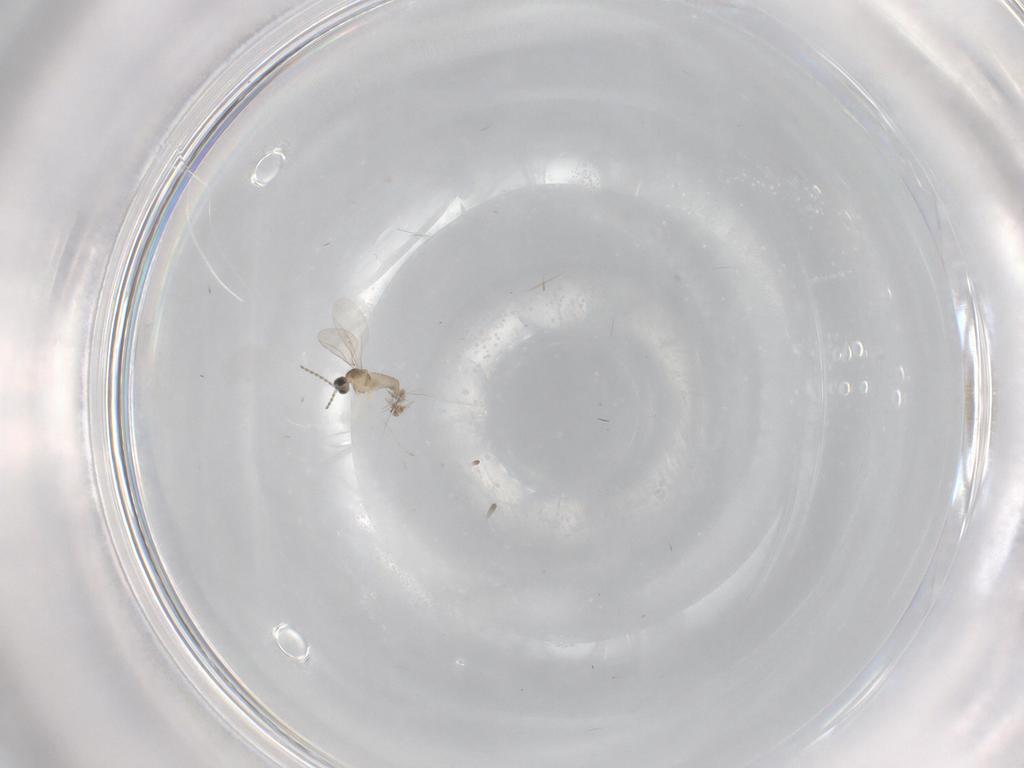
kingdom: Animalia
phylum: Arthropoda
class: Insecta
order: Diptera
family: Cecidomyiidae
